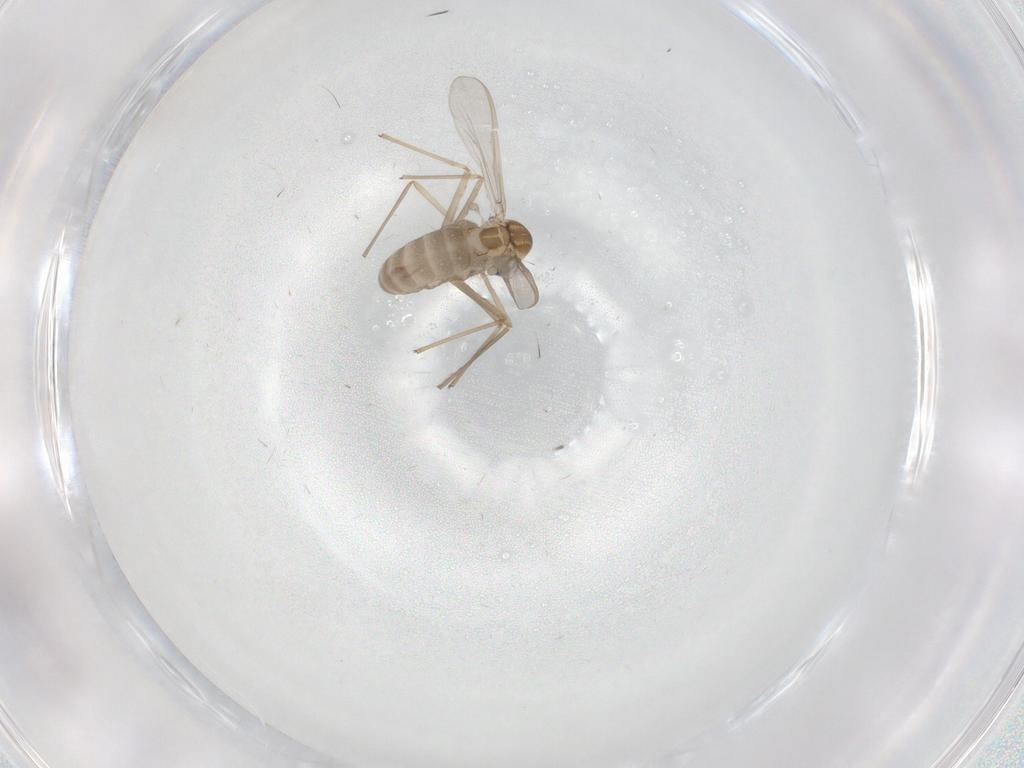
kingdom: Animalia
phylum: Arthropoda
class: Insecta
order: Diptera
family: Chironomidae
